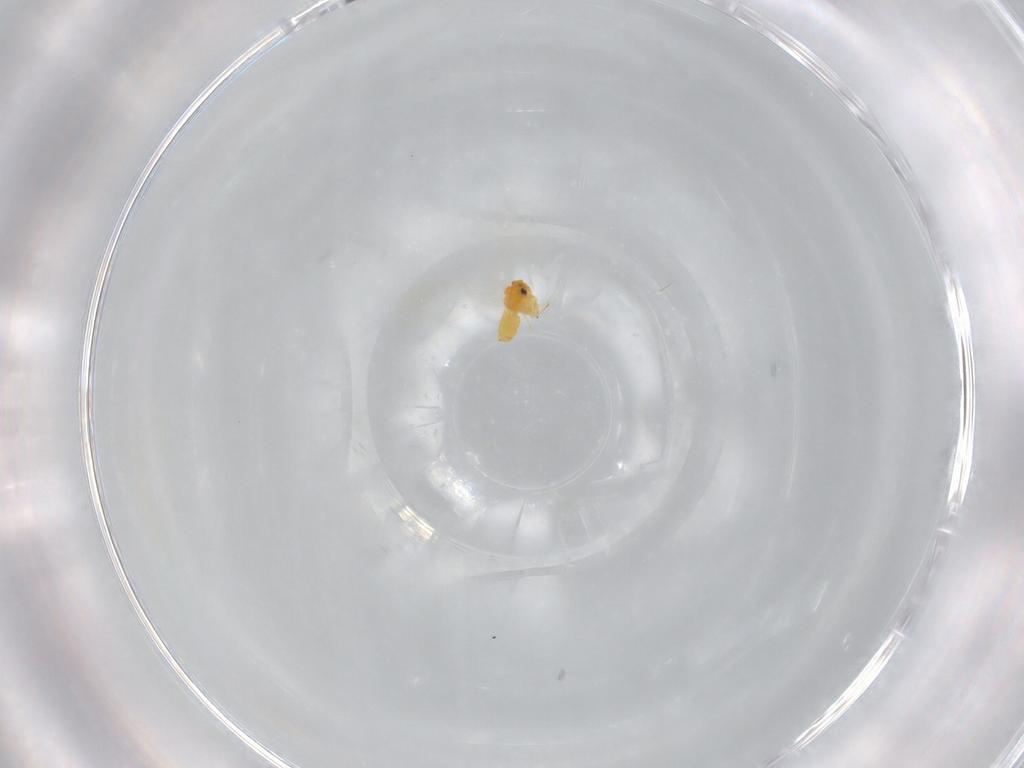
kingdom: Animalia
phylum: Arthropoda
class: Insecta
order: Hemiptera
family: Aleyrodidae
